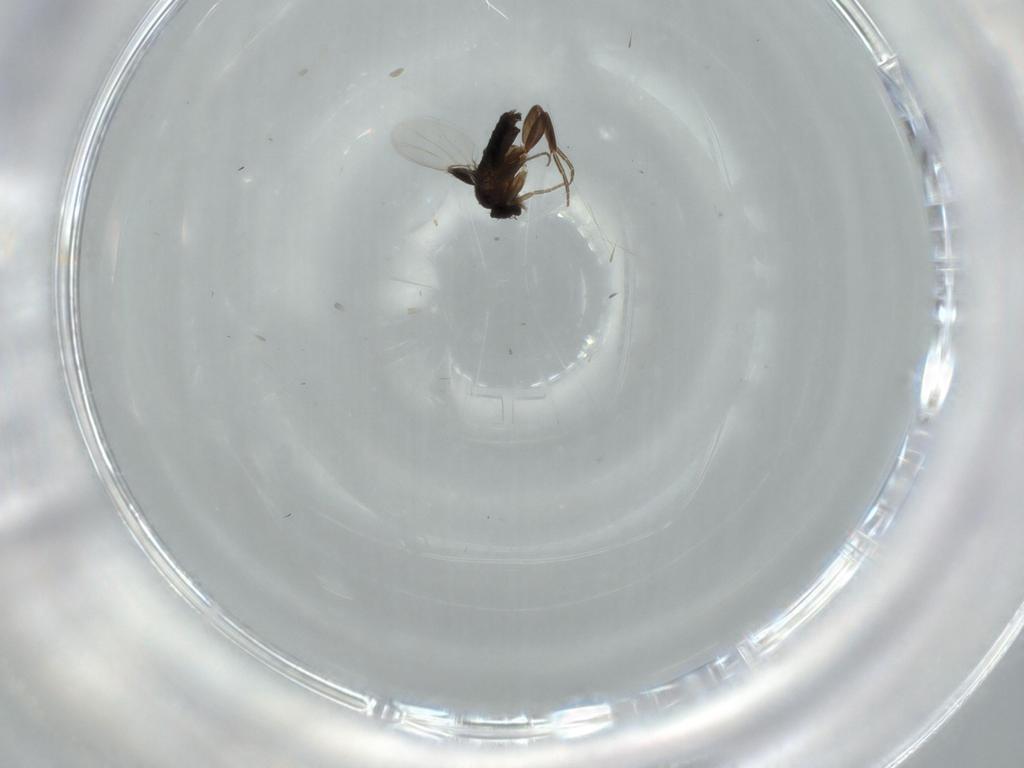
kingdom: Animalia
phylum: Arthropoda
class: Insecta
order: Diptera
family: Phoridae
